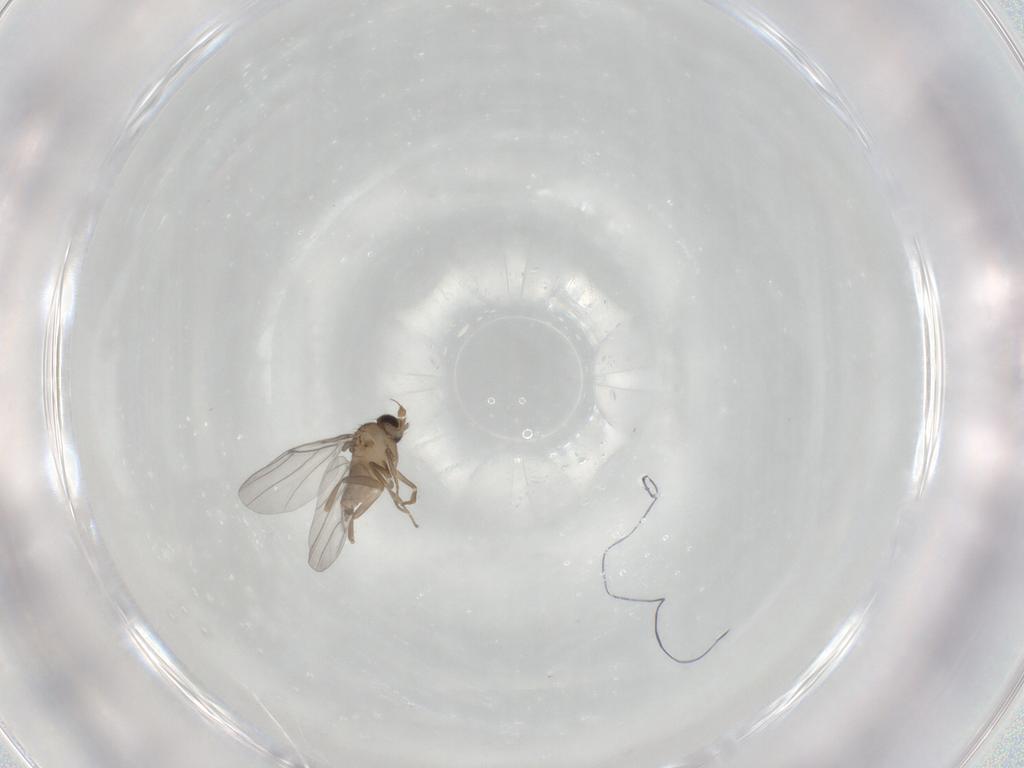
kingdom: Animalia
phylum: Arthropoda
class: Insecta
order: Diptera
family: Cecidomyiidae
